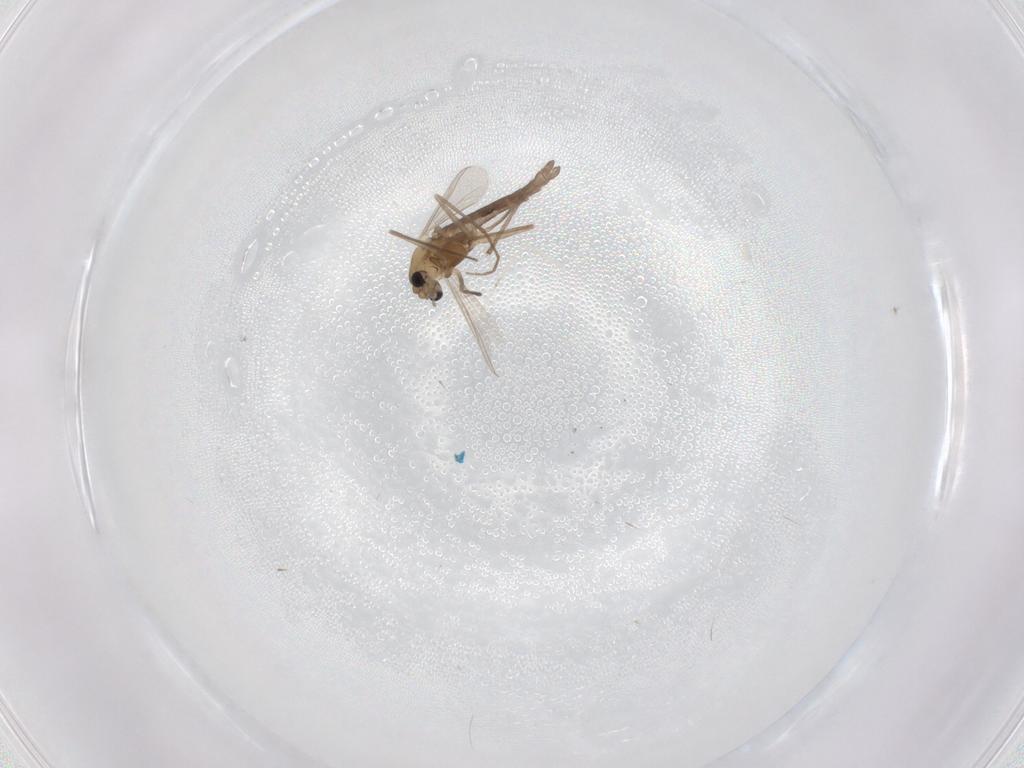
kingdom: Animalia
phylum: Arthropoda
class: Insecta
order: Diptera
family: Chironomidae
